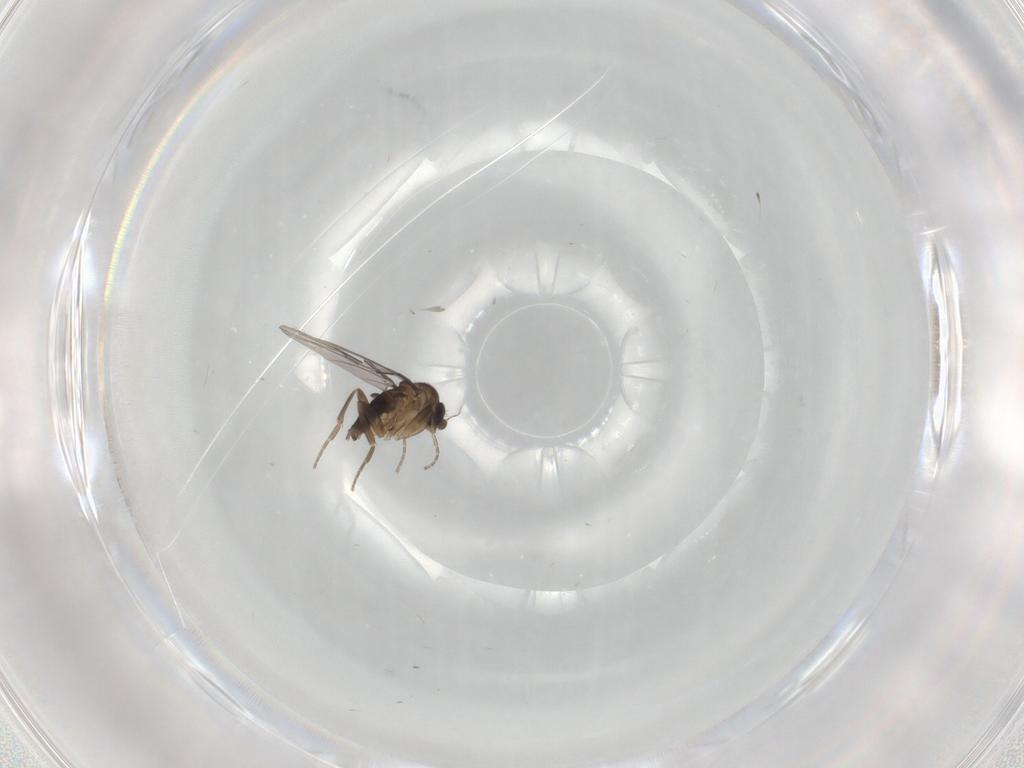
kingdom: Animalia
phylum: Arthropoda
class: Insecta
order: Diptera
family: Phoridae
